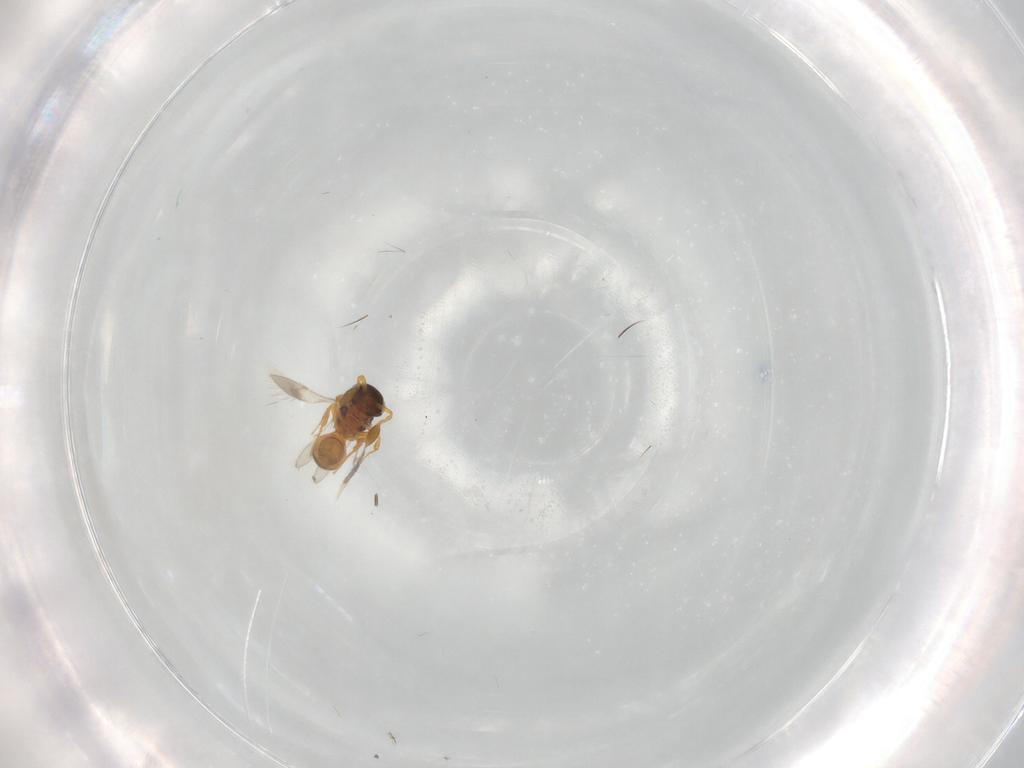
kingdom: Animalia
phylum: Arthropoda
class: Insecta
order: Hymenoptera
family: Scelionidae
